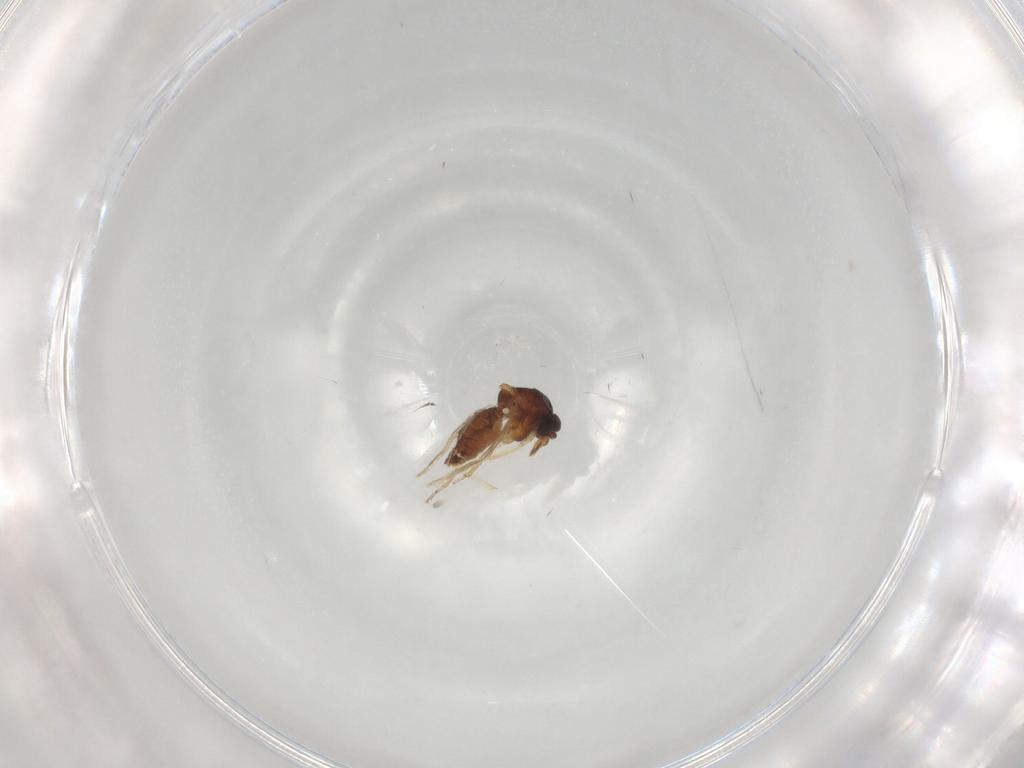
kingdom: Animalia
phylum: Arthropoda
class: Insecta
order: Diptera
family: Ceratopogonidae
